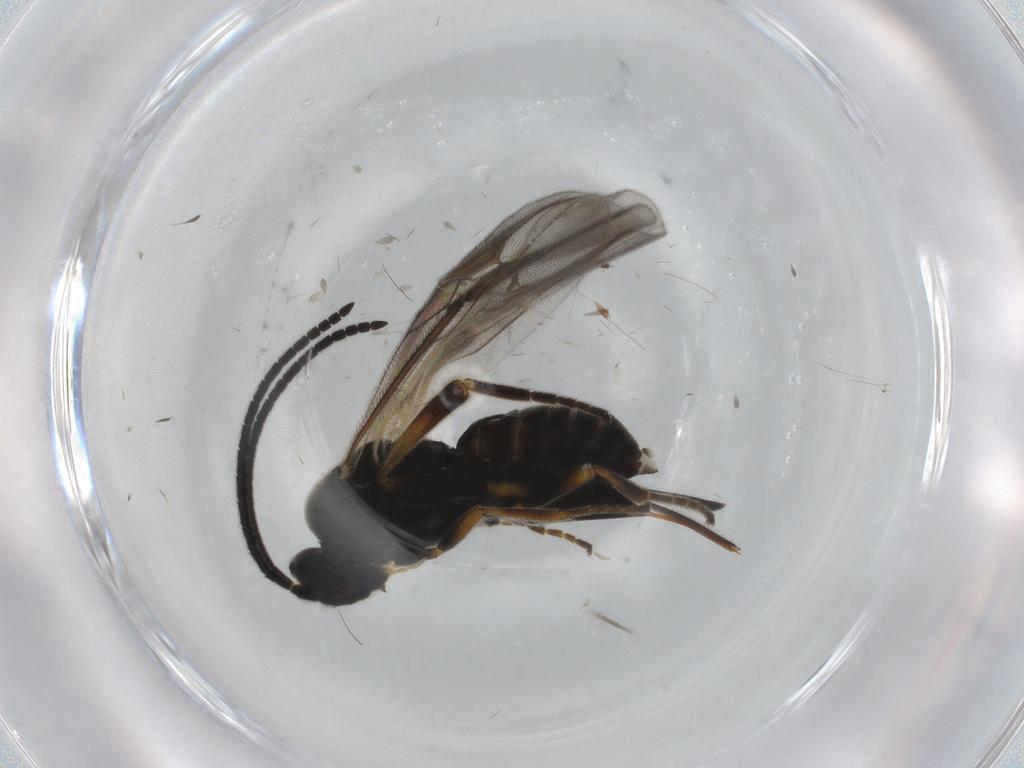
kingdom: Animalia
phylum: Arthropoda
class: Insecta
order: Hymenoptera
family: Braconidae
